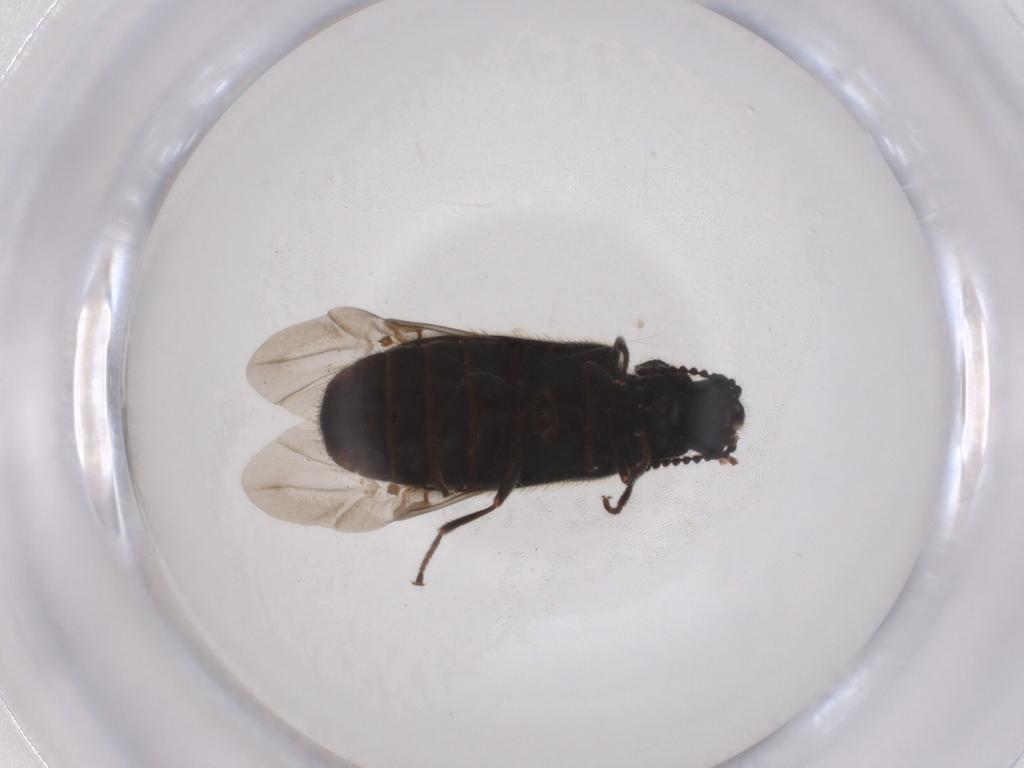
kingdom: Animalia
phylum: Arthropoda
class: Insecta
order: Coleoptera
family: Melyridae
